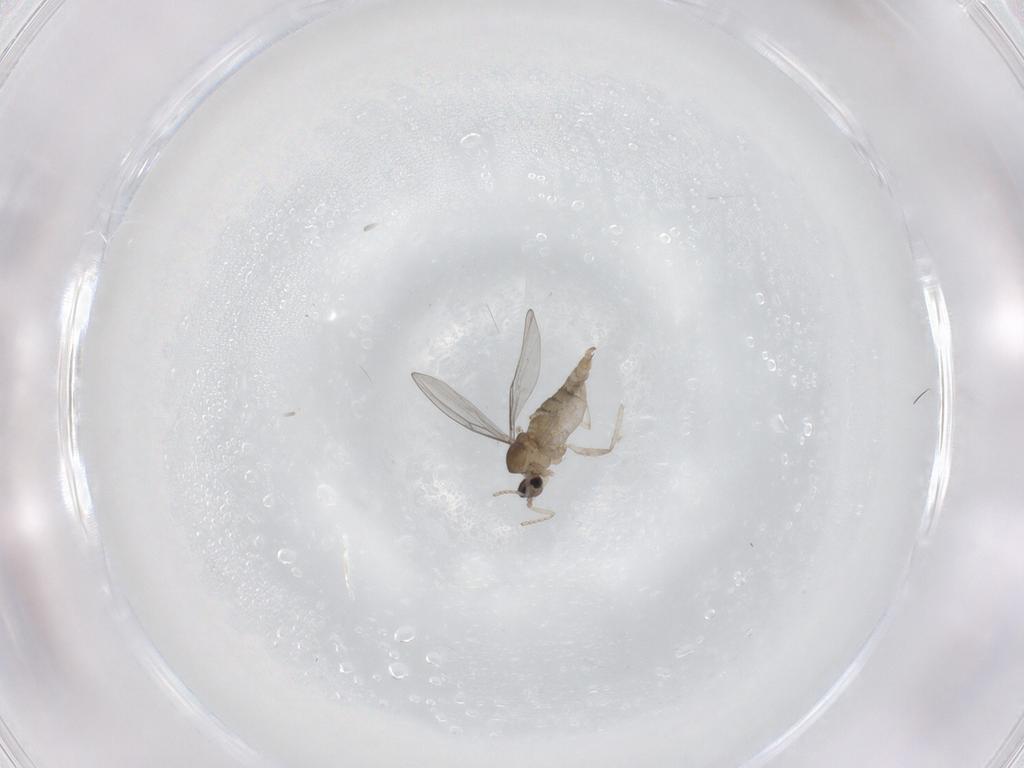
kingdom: Animalia
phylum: Arthropoda
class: Insecta
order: Diptera
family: Cecidomyiidae
